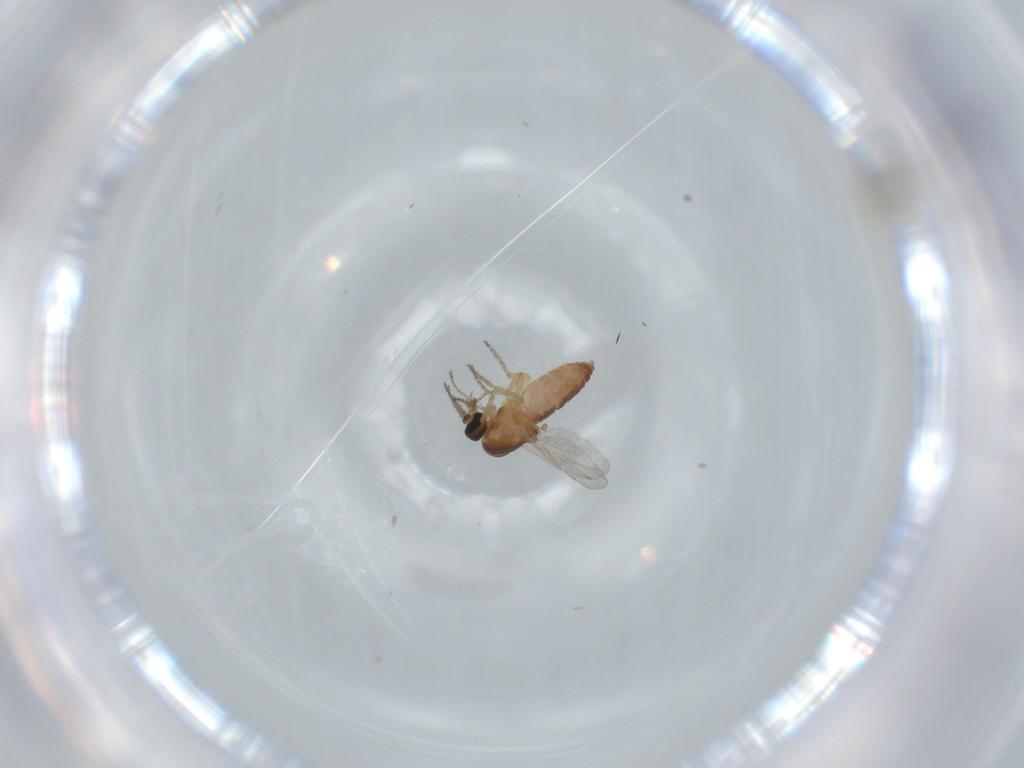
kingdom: Animalia
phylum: Arthropoda
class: Insecta
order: Diptera
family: Ceratopogonidae
